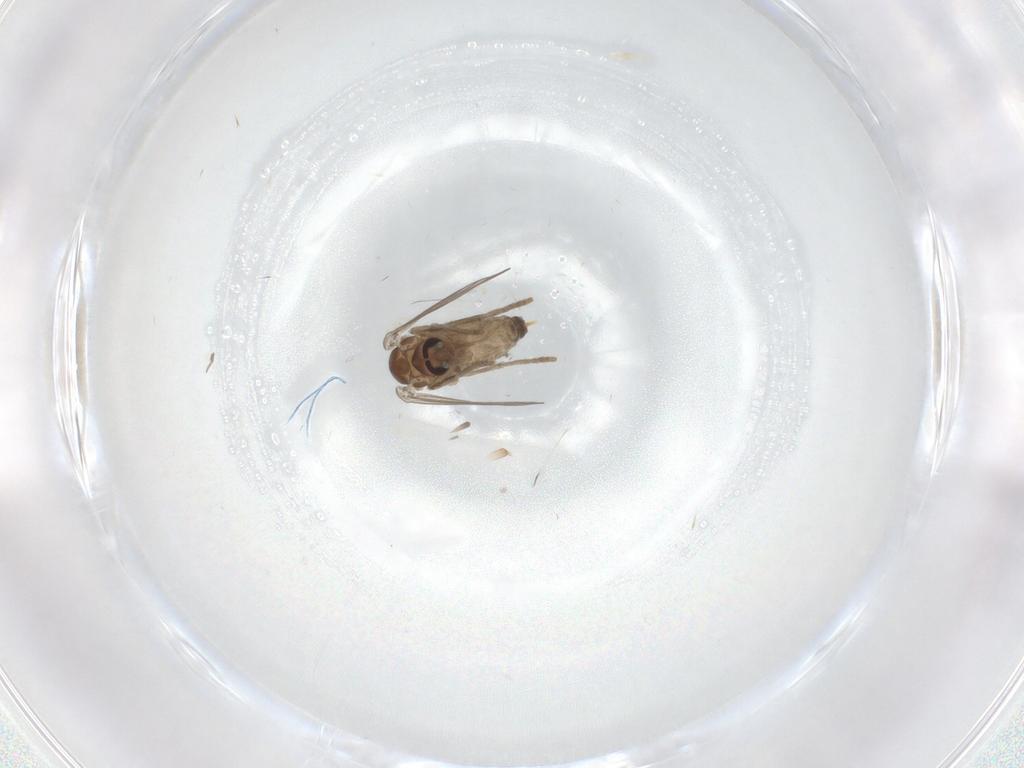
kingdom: Animalia
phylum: Arthropoda
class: Insecta
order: Diptera
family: Psychodidae
